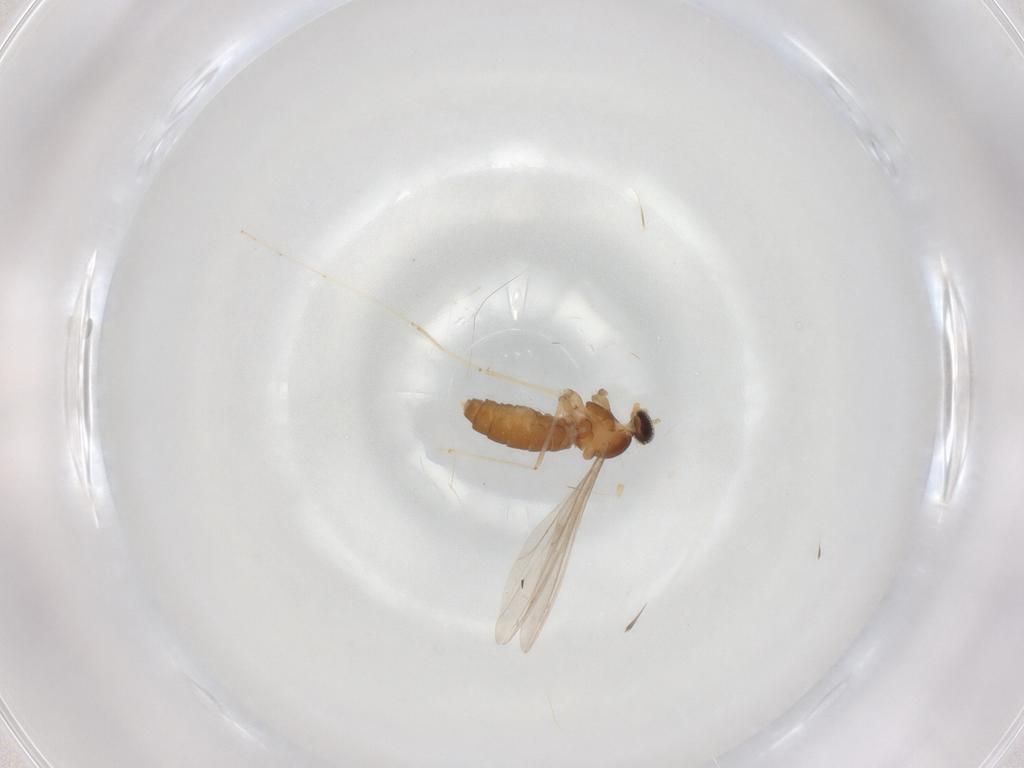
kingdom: Animalia
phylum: Arthropoda
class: Insecta
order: Diptera
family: Cecidomyiidae
